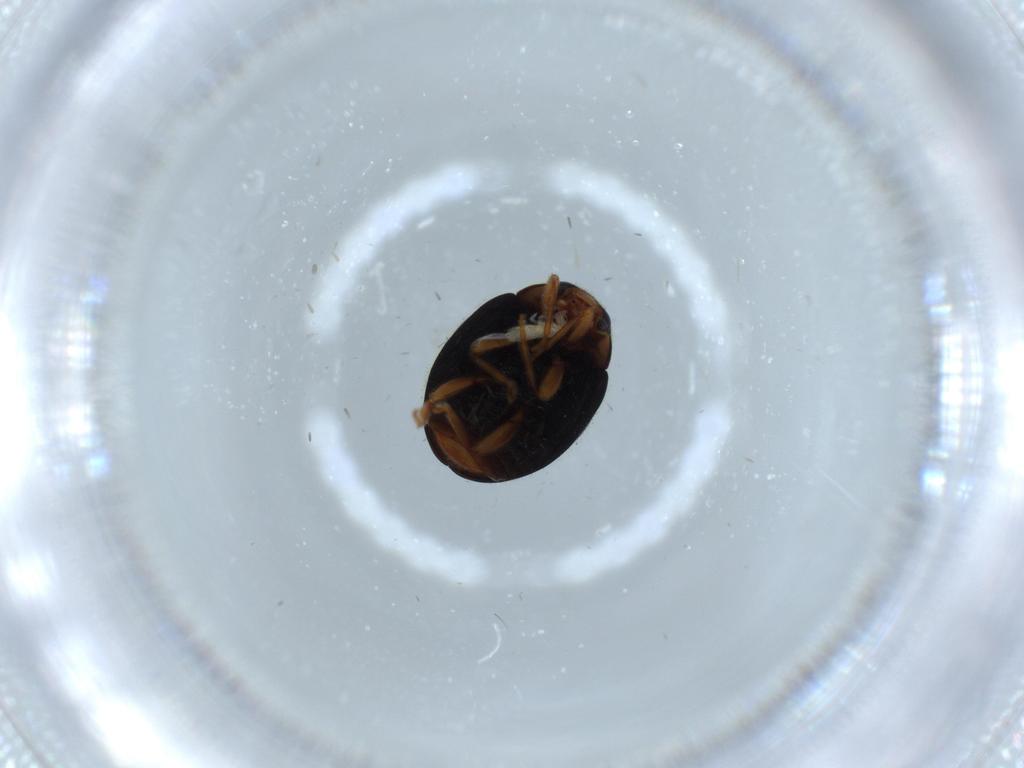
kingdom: Animalia
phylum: Arthropoda
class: Insecta
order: Coleoptera
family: Coccinellidae
